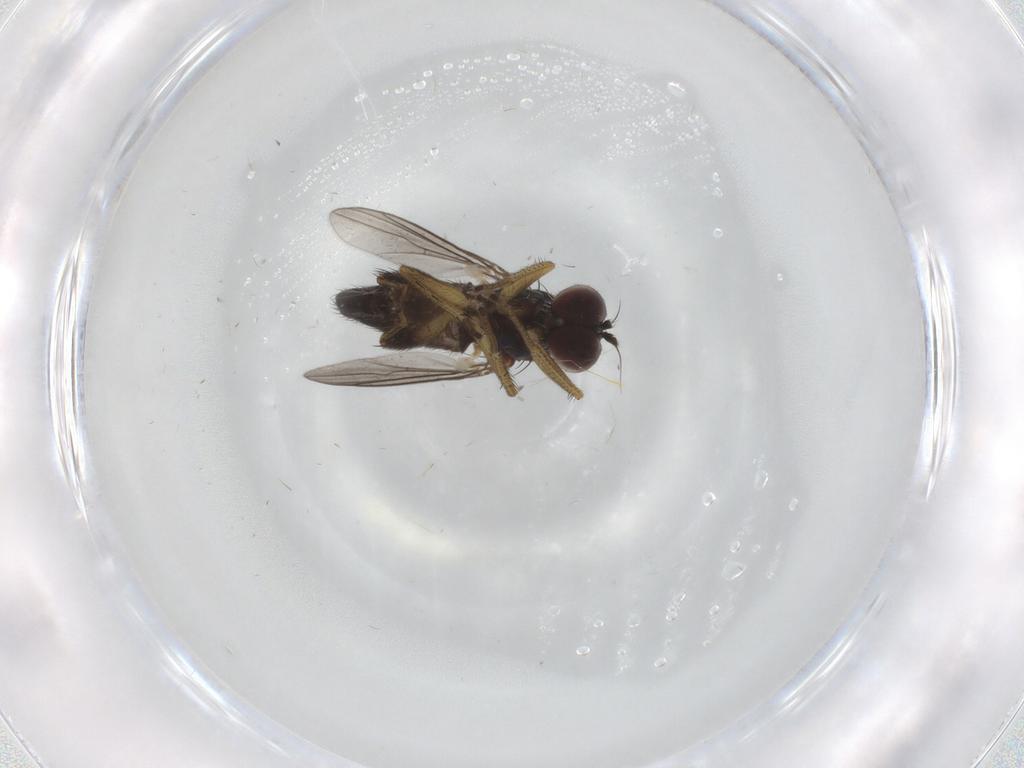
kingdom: Animalia
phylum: Arthropoda
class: Insecta
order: Diptera
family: Dolichopodidae
